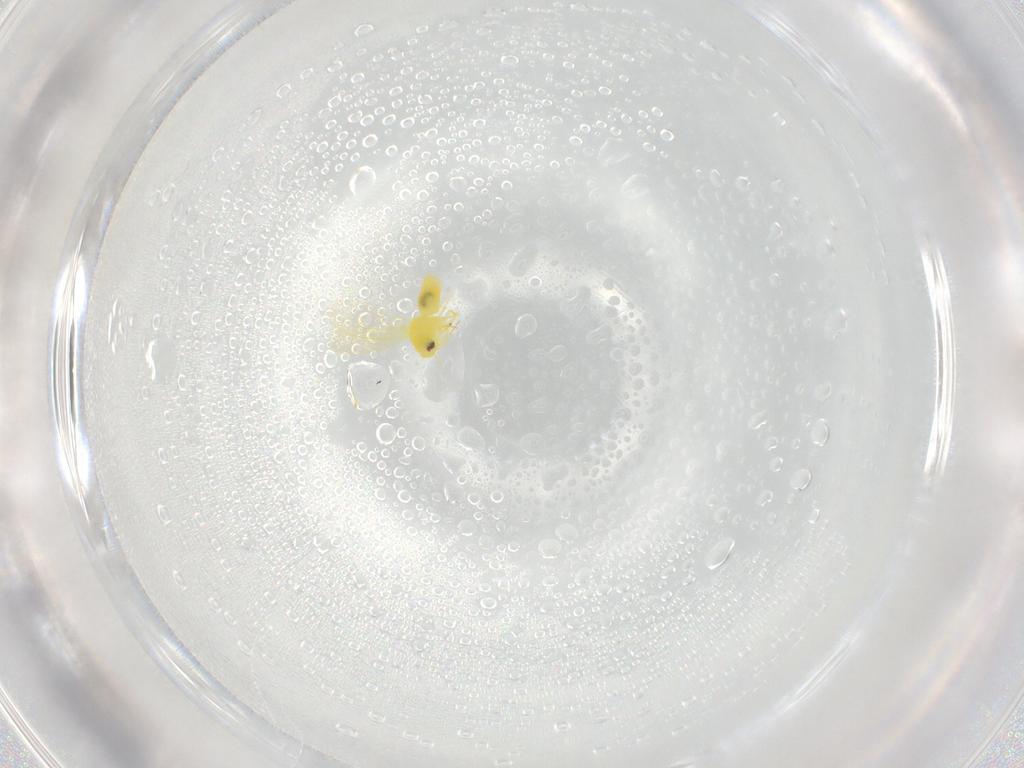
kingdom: Animalia
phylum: Arthropoda
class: Insecta
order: Hemiptera
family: Aleyrodidae
